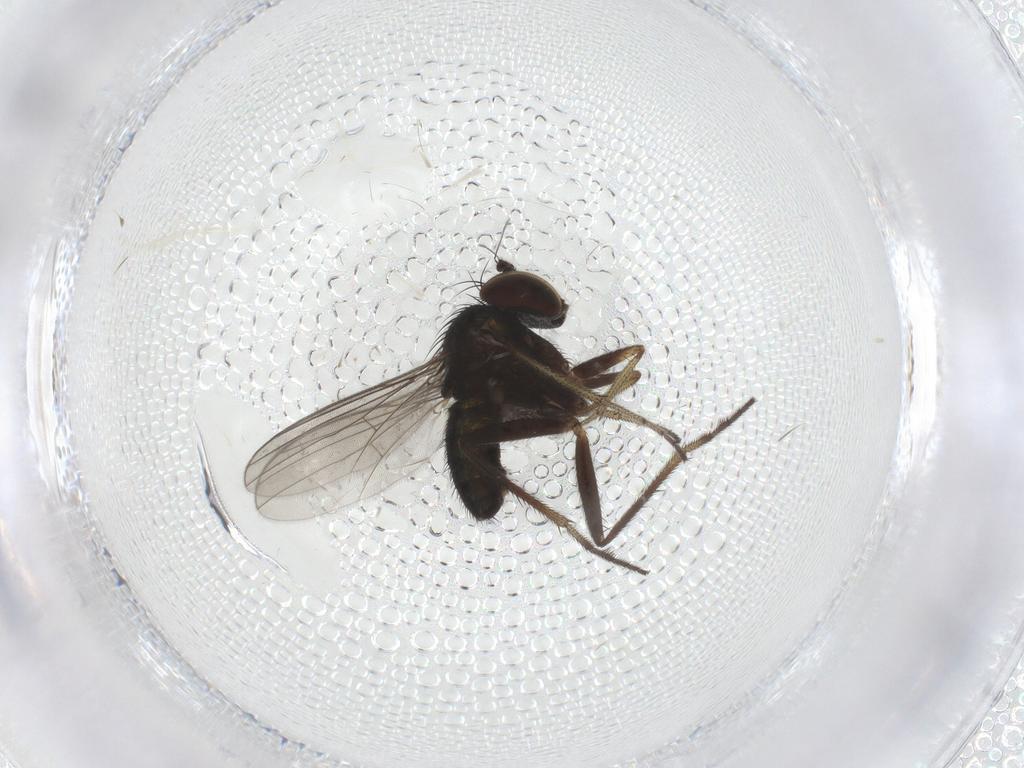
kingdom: Animalia
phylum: Arthropoda
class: Insecta
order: Diptera
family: Dolichopodidae
